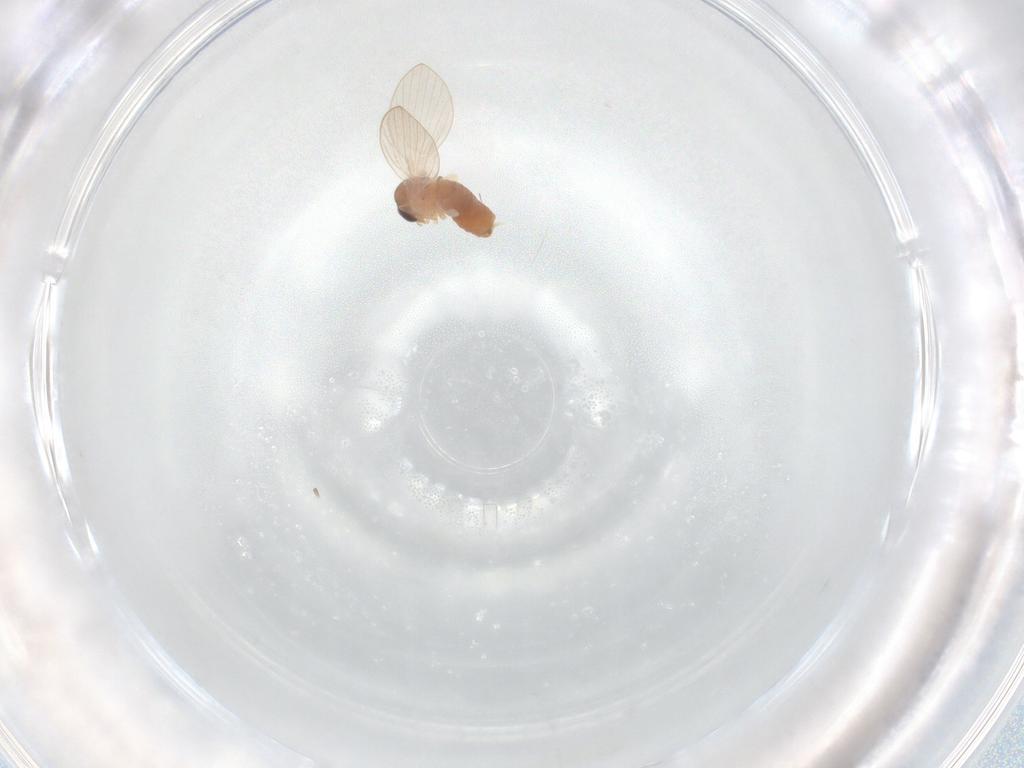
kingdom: Animalia
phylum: Arthropoda
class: Insecta
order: Diptera
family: Psychodidae
